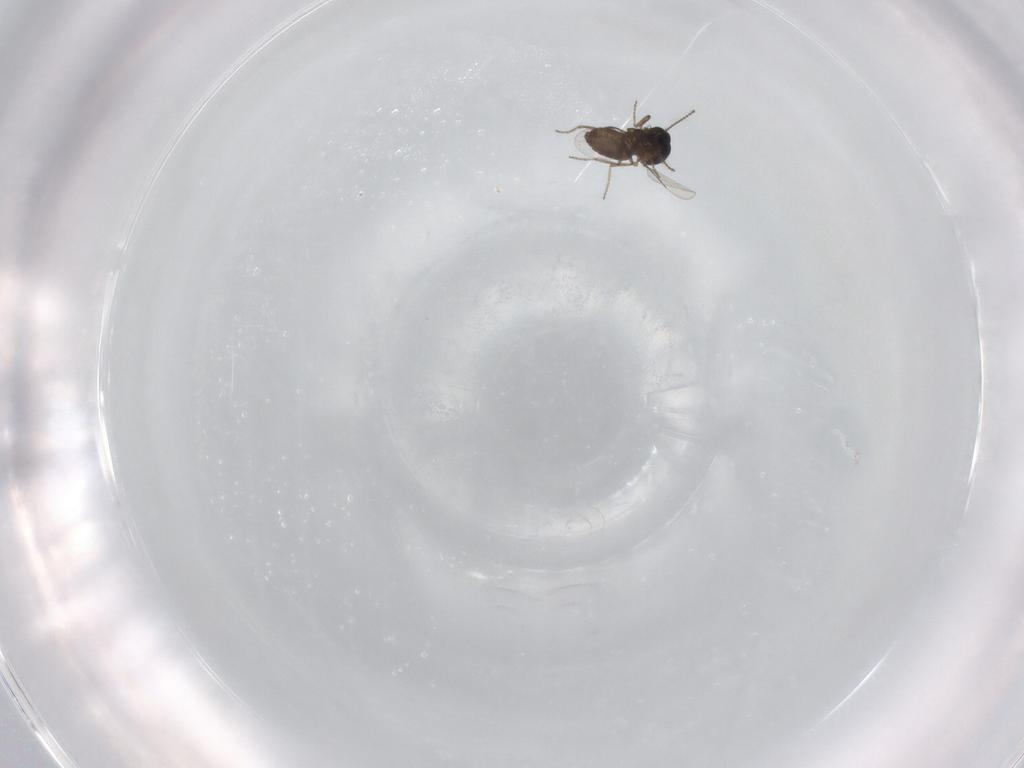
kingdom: Animalia
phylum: Arthropoda
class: Insecta
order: Diptera
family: Ceratopogonidae
